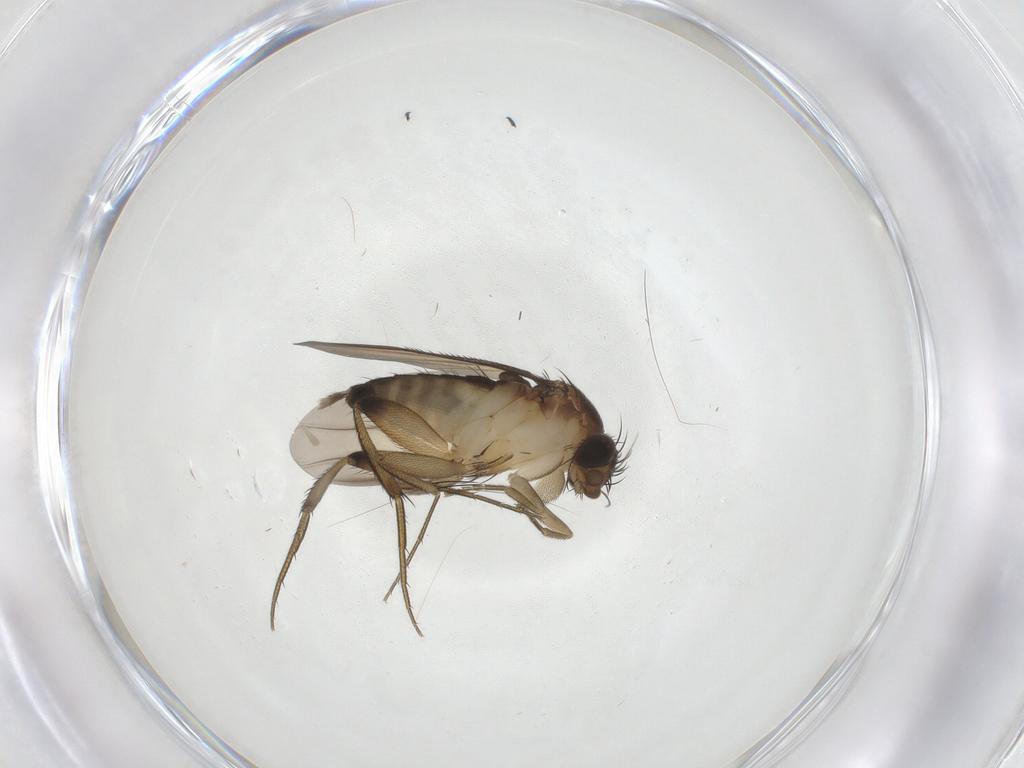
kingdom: Animalia
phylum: Arthropoda
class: Insecta
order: Diptera
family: Phoridae
